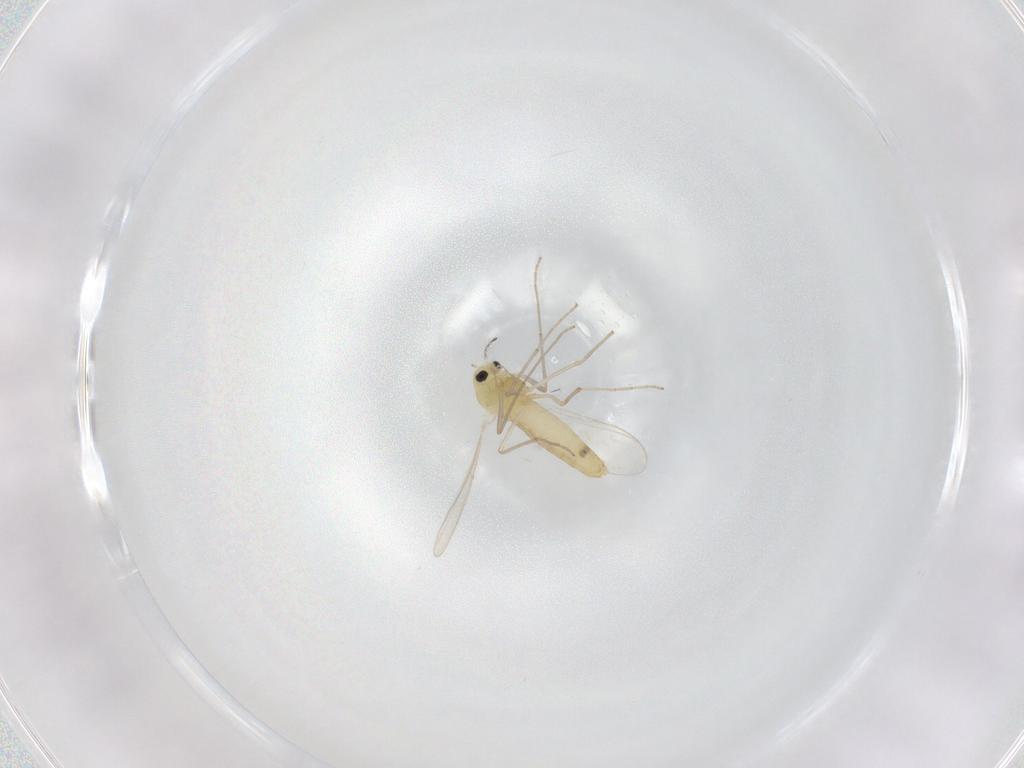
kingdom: Animalia
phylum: Arthropoda
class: Insecta
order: Diptera
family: Chironomidae
